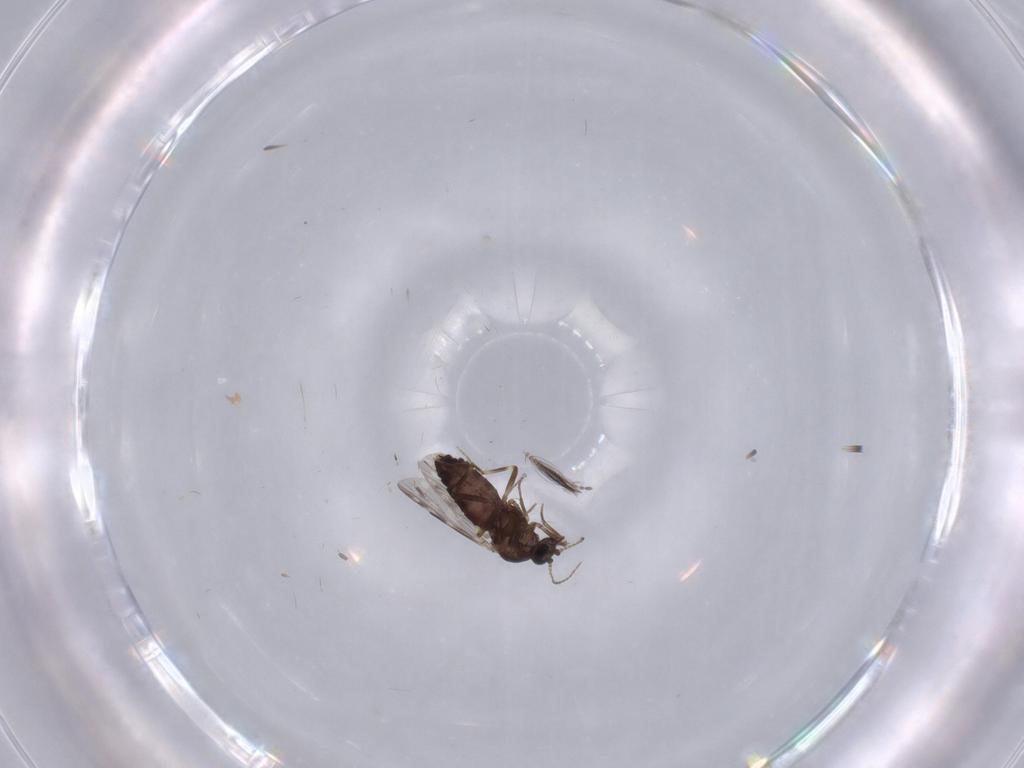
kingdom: Animalia
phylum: Arthropoda
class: Insecta
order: Diptera
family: Sciaridae
